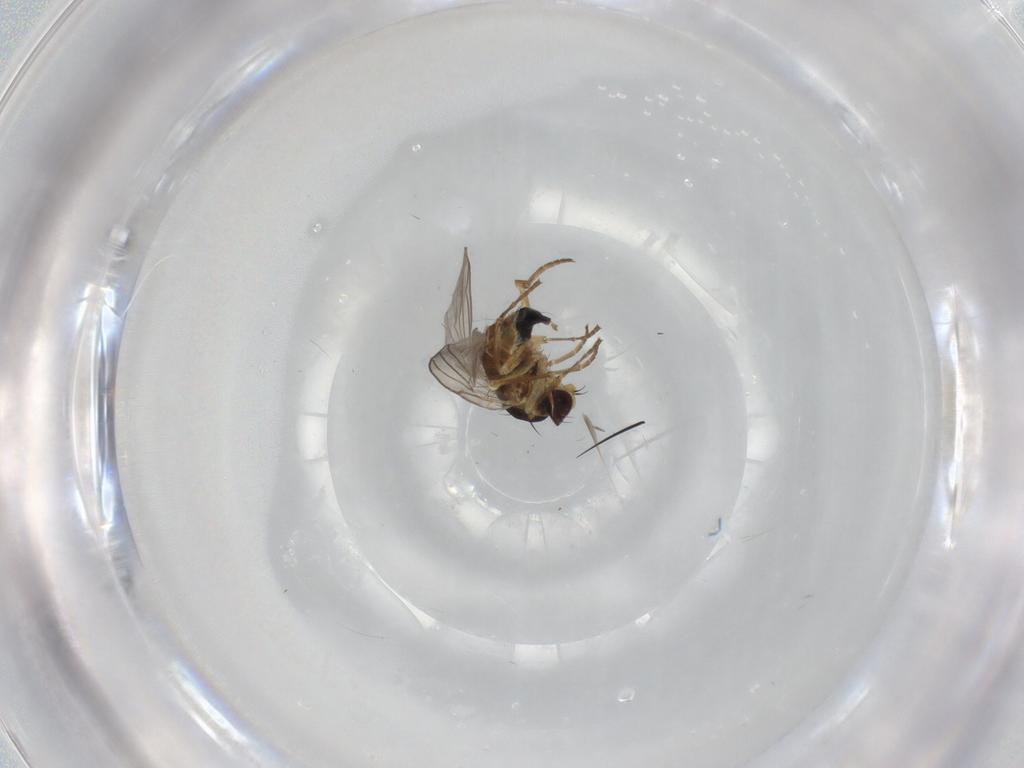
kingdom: Animalia
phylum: Arthropoda
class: Insecta
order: Diptera
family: Agromyzidae
